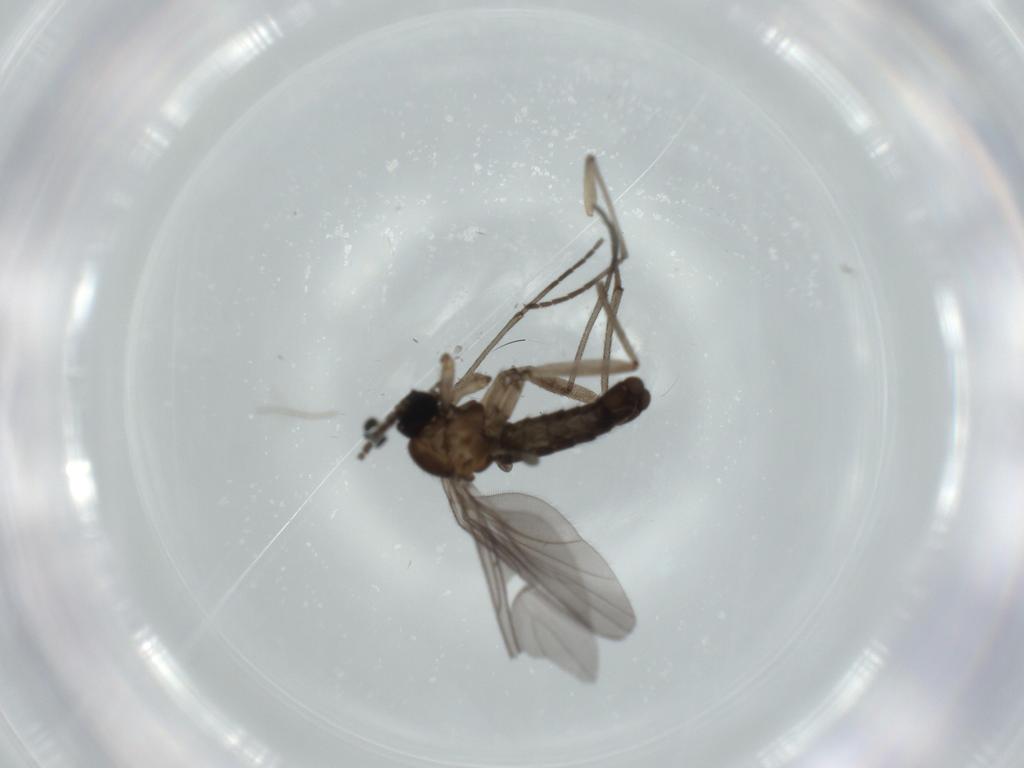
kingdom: Animalia
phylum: Arthropoda
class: Insecta
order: Diptera
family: Sciaridae
